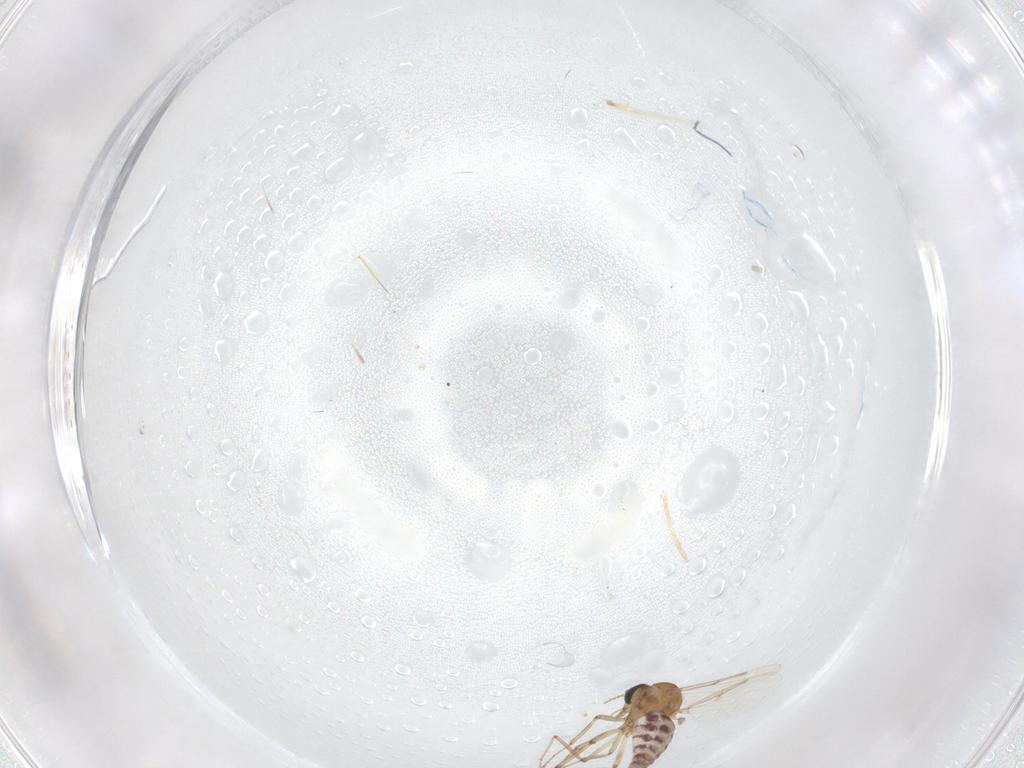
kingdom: Animalia
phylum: Arthropoda
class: Insecta
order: Diptera
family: Ceratopogonidae
